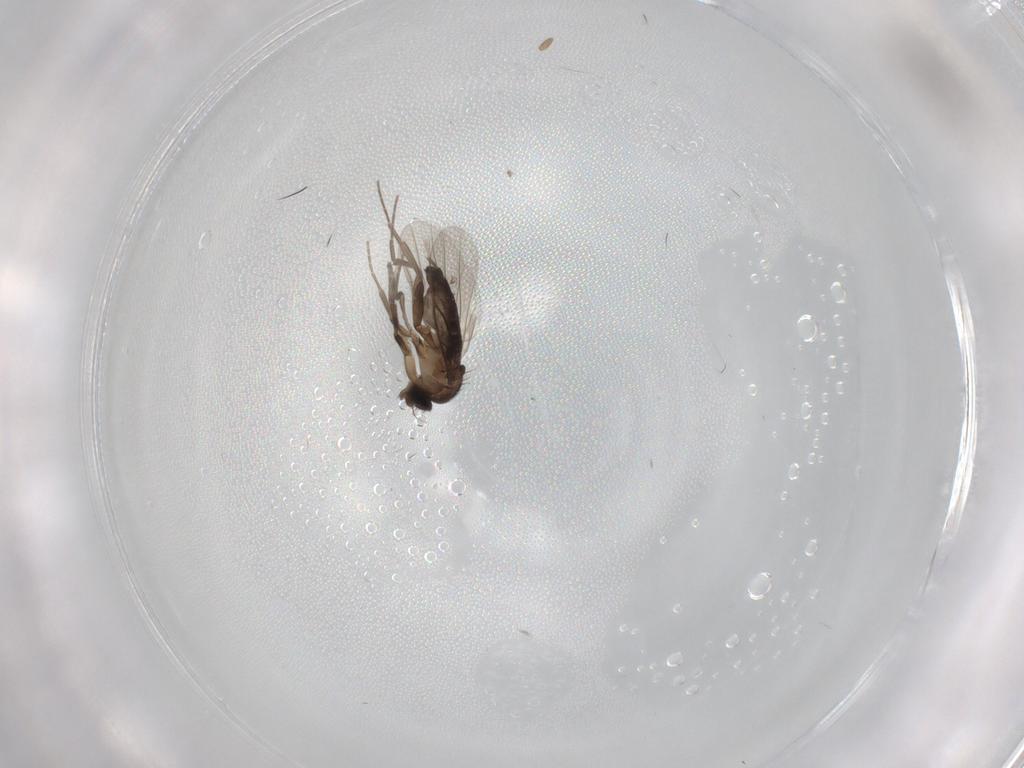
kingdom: Animalia
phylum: Arthropoda
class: Insecta
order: Diptera
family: Phoridae
